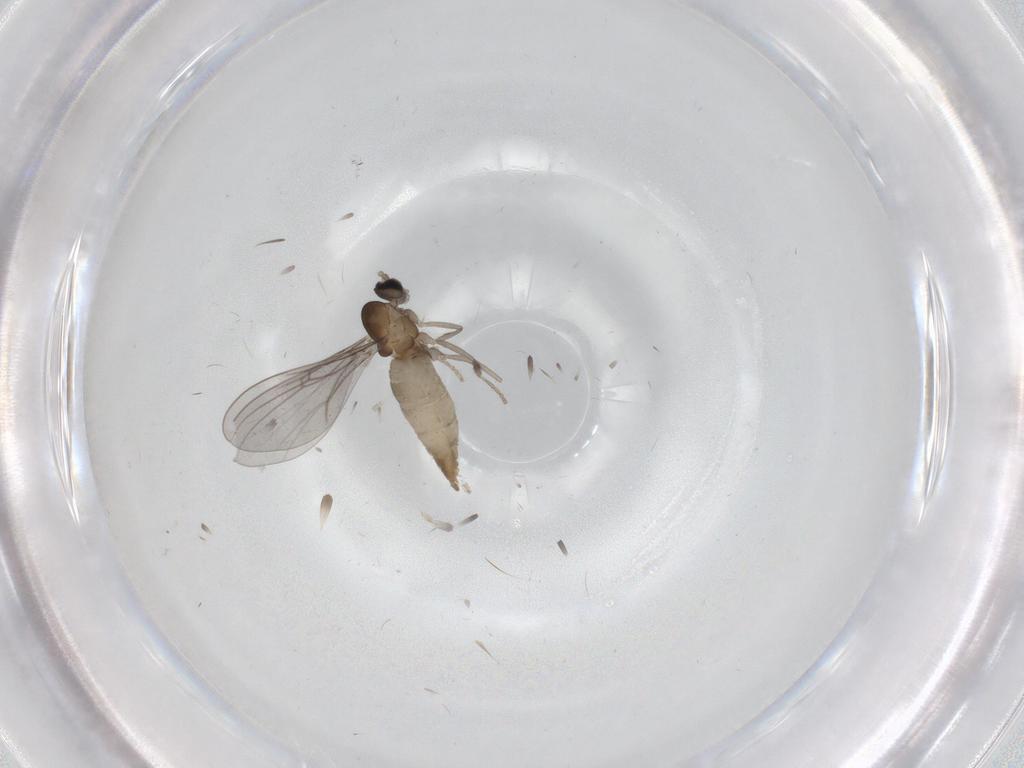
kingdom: Animalia
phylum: Arthropoda
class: Insecta
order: Diptera
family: Cecidomyiidae
